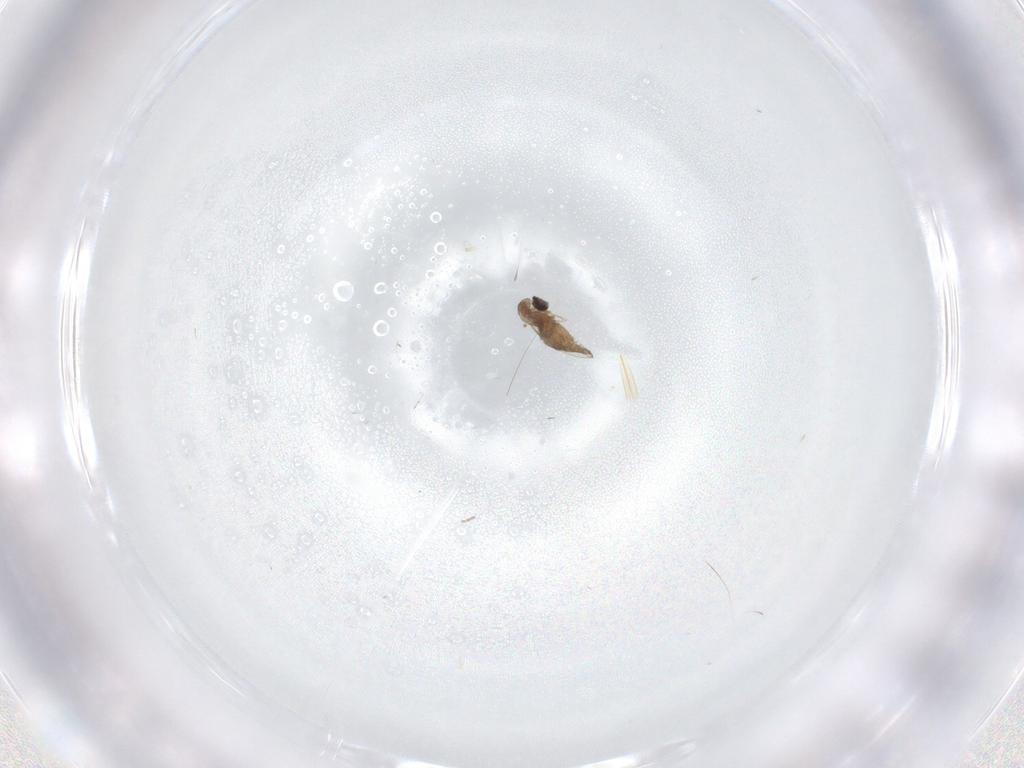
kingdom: Animalia
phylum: Arthropoda
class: Insecta
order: Diptera
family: Cecidomyiidae
